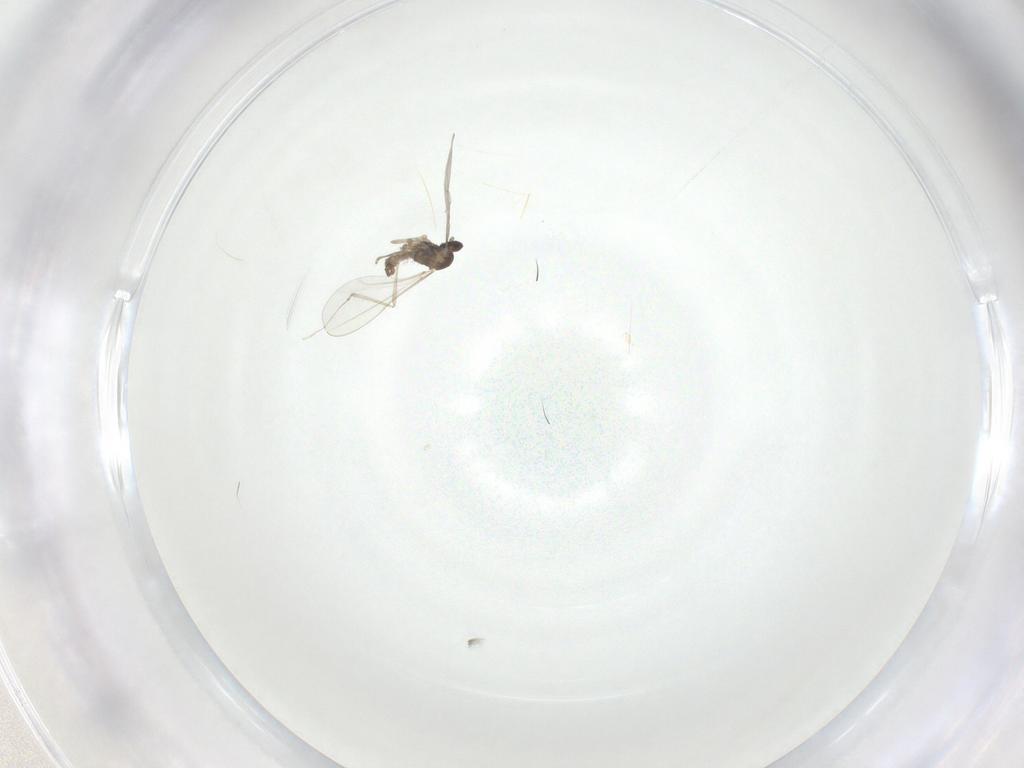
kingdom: Animalia
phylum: Arthropoda
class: Insecta
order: Diptera
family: Cecidomyiidae
